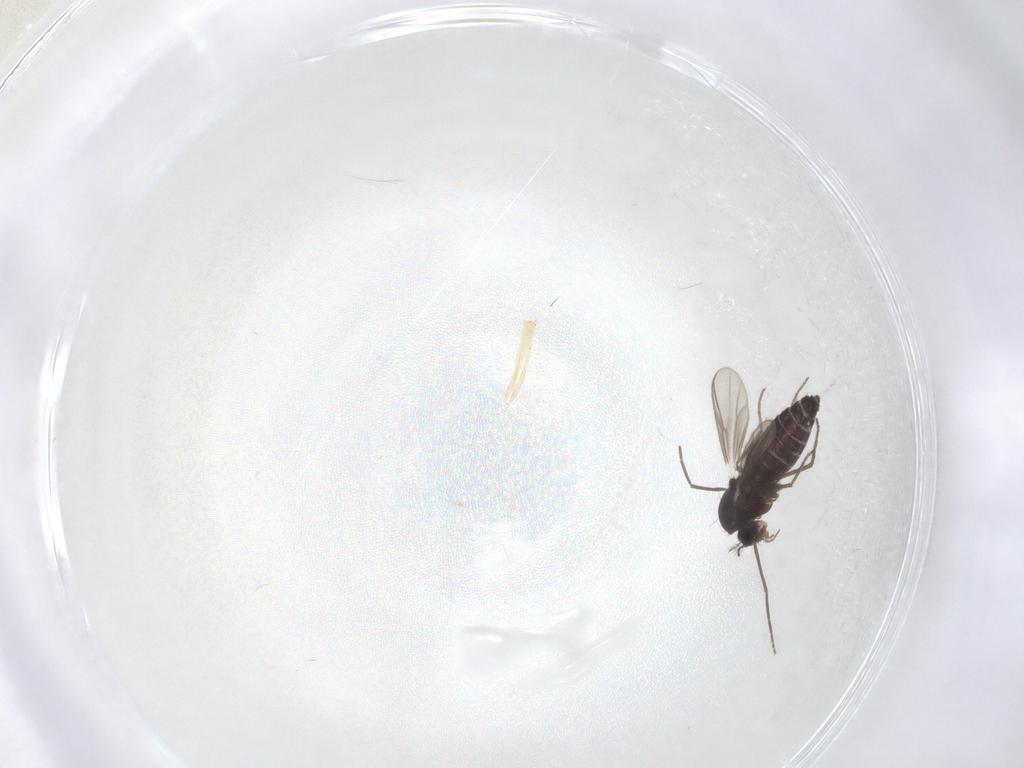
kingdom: Animalia
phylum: Arthropoda
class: Insecta
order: Diptera
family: Chironomidae
